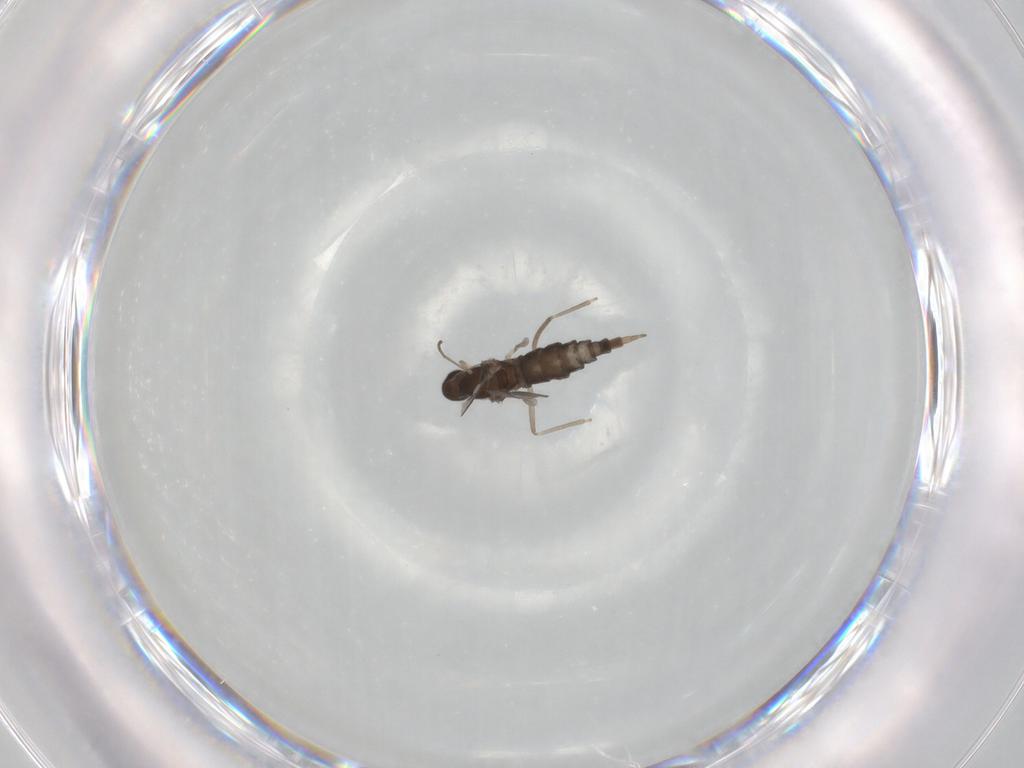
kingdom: Animalia
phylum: Arthropoda
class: Insecta
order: Diptera
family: Cecidomyiidae
